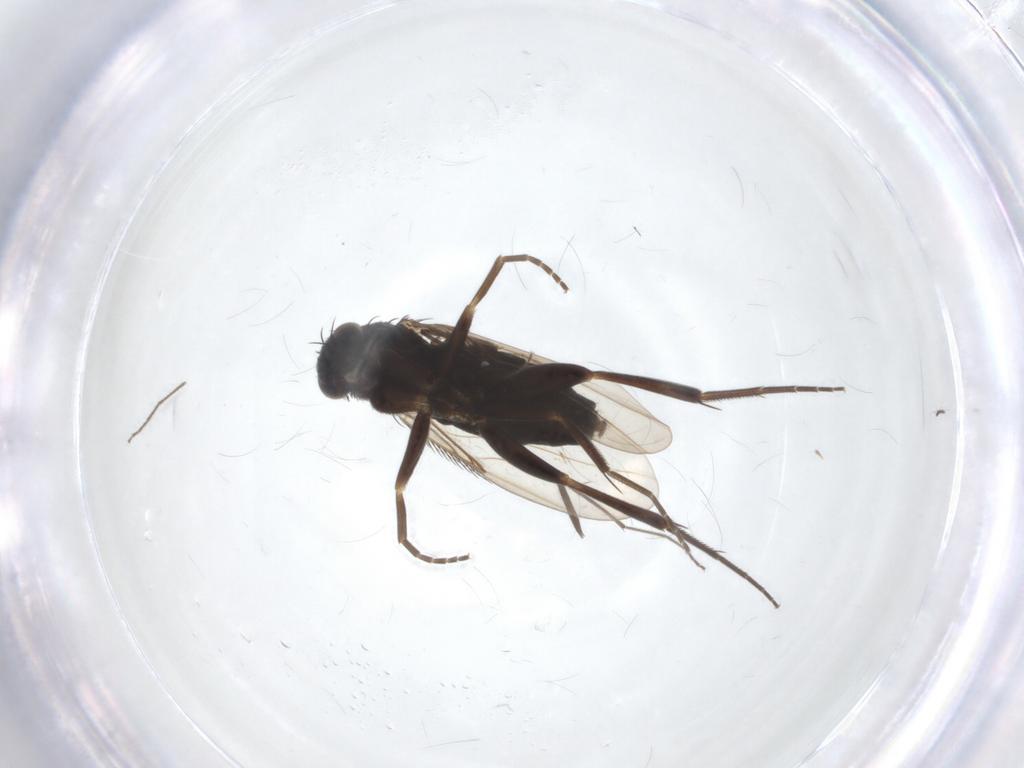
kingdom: Animalia
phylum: Arthropoda
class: Insecta
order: Diptera
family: Phoridae
